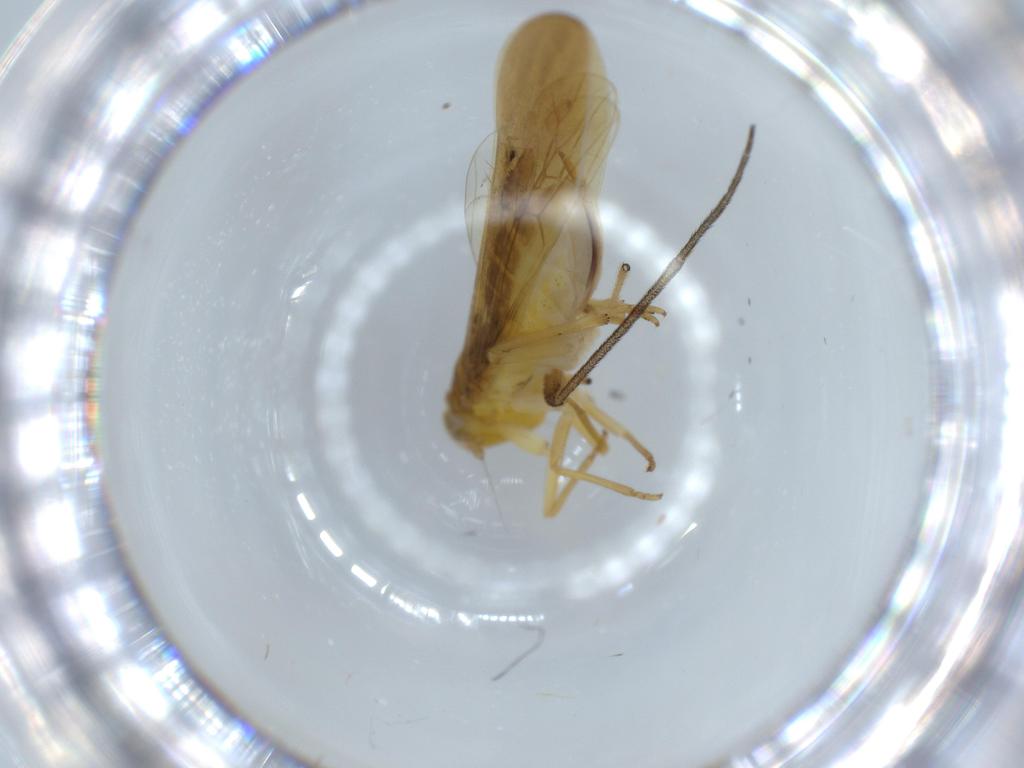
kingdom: Animalia
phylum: Arthropoda
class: Insecta
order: Hemiptera
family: Delphacidae
